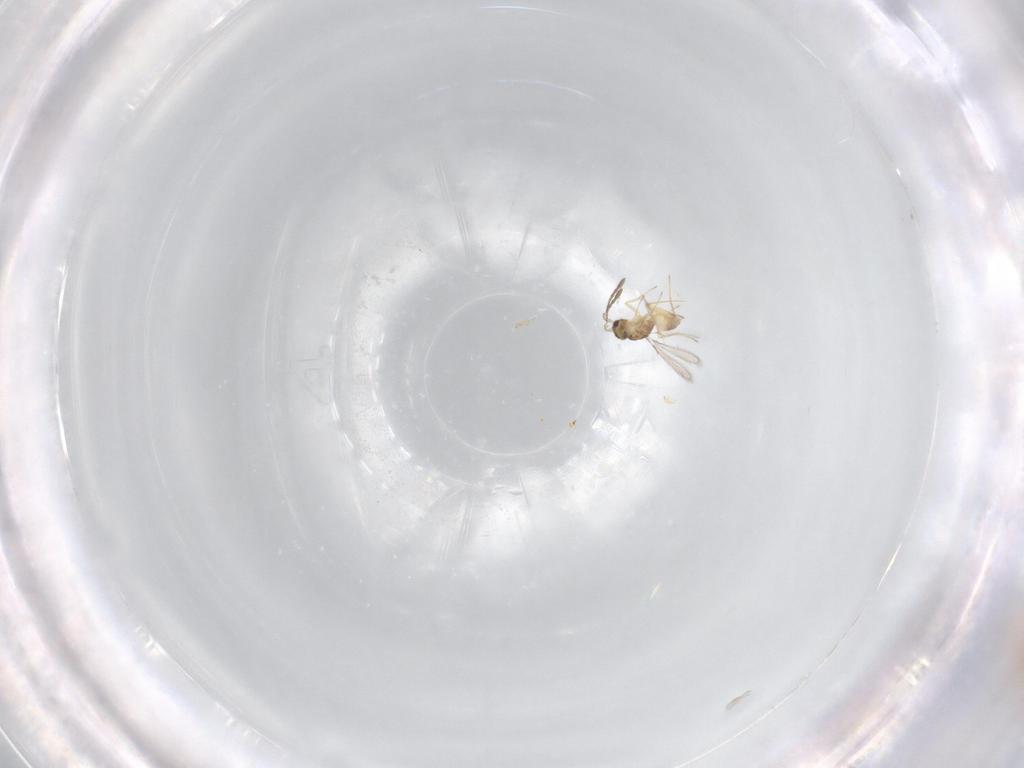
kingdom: Animalia
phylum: Arthropoda
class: Insecta
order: Hymenoptera
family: Mymaridae
